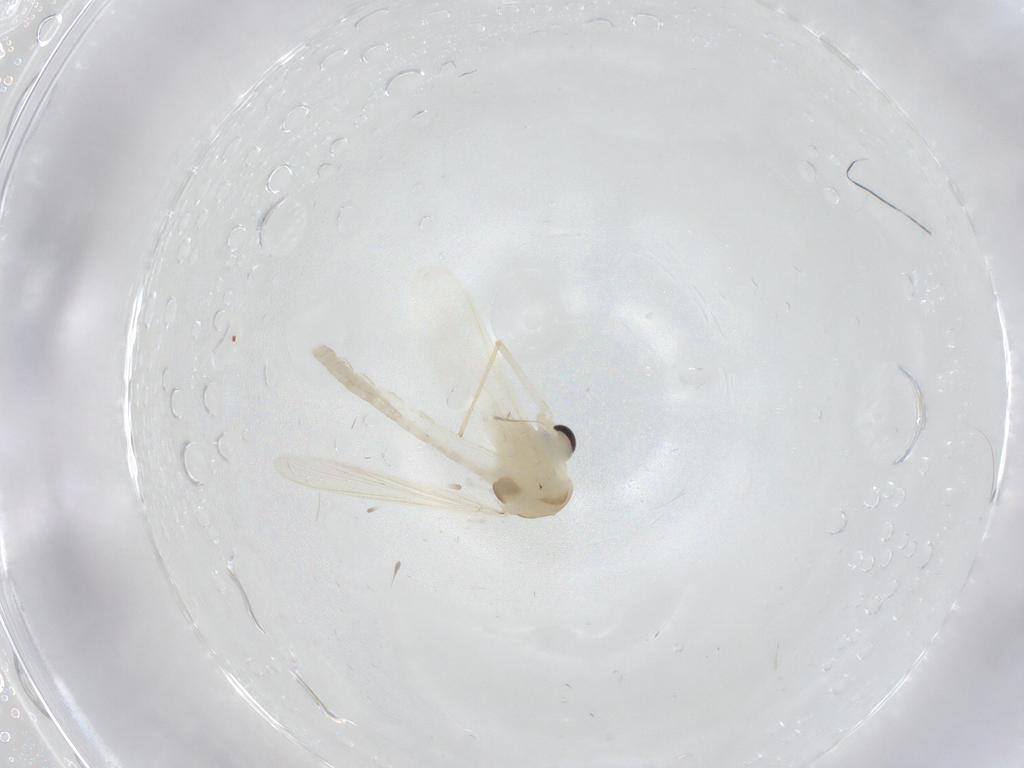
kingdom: Animalia
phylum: Arthropoda
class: Insecta
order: Diptera
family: Chironomidae
